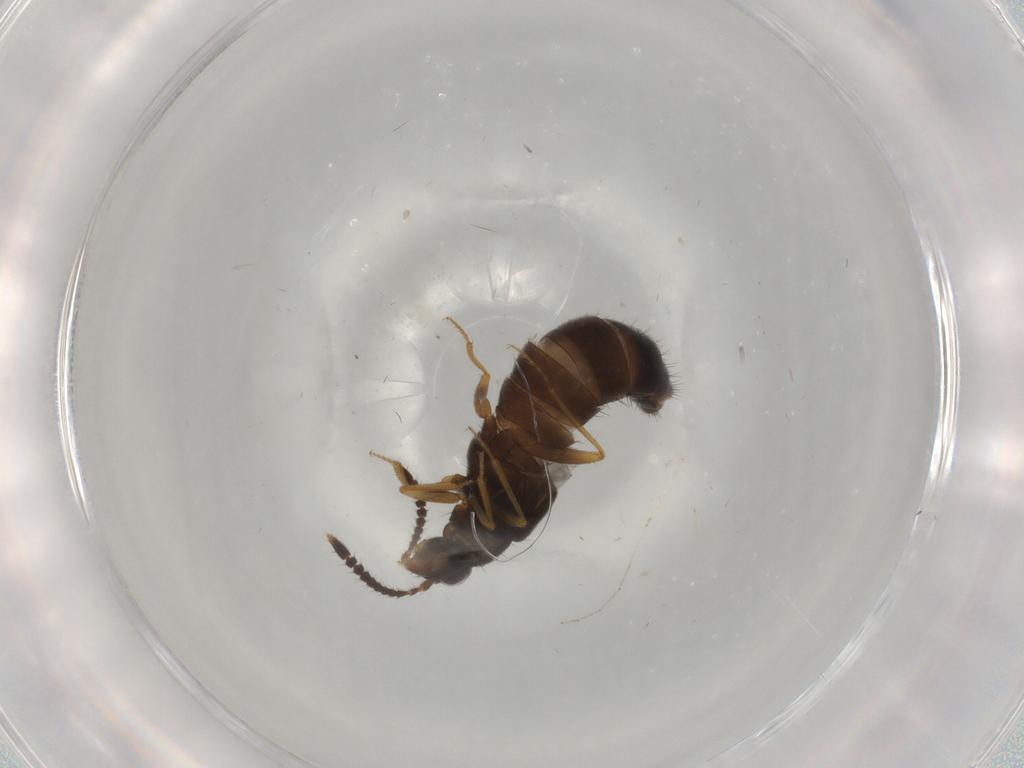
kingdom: Animalia
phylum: Arthropoda
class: Insecta
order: Coleoptera
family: Staphylinidae
